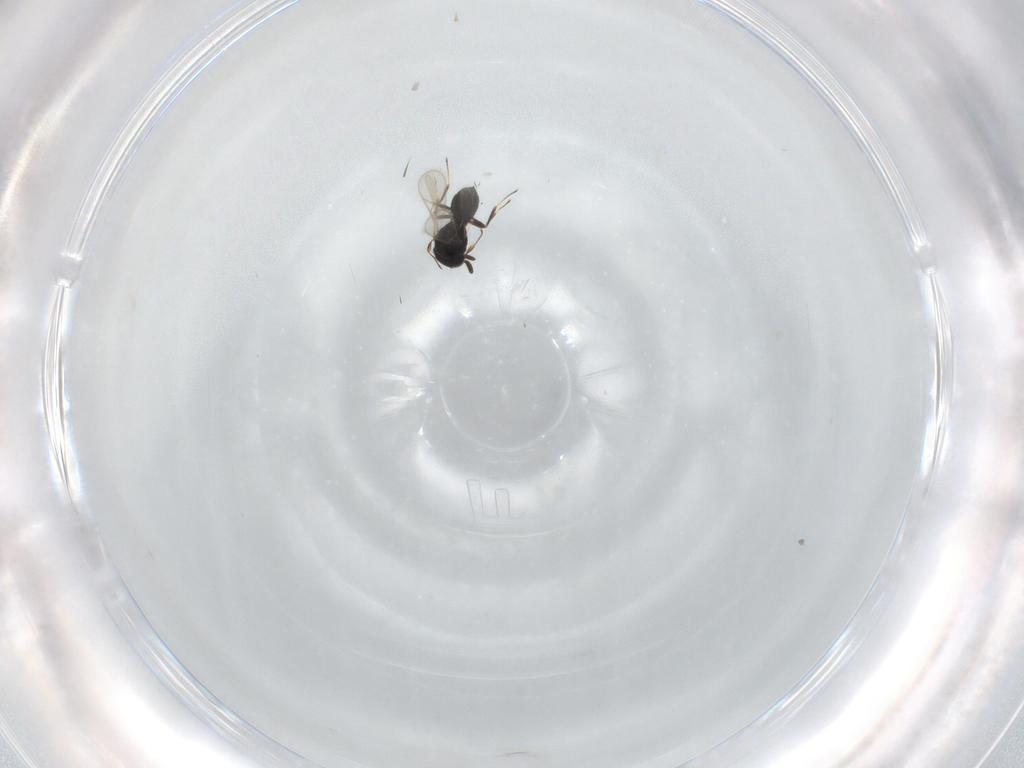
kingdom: Animalia
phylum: Arthropoda
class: Insecta
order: Hymenoptera
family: Scelionidae
